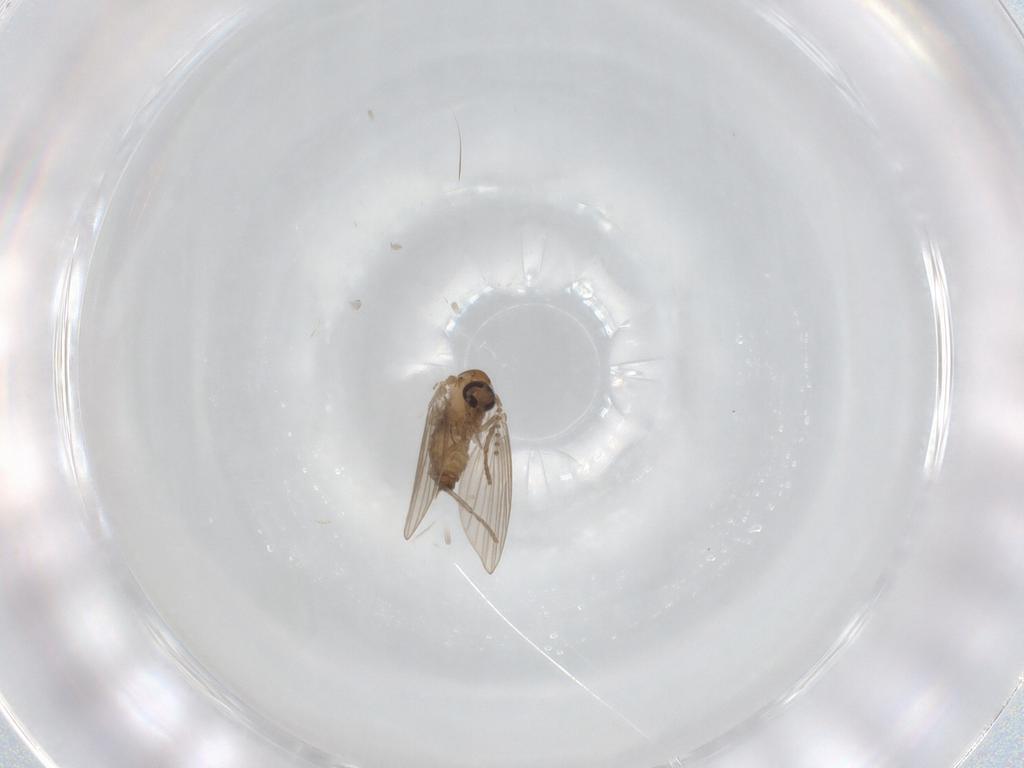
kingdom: Animalia
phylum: Arthropoda
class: Insecta
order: Diptera
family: Psychodidae
